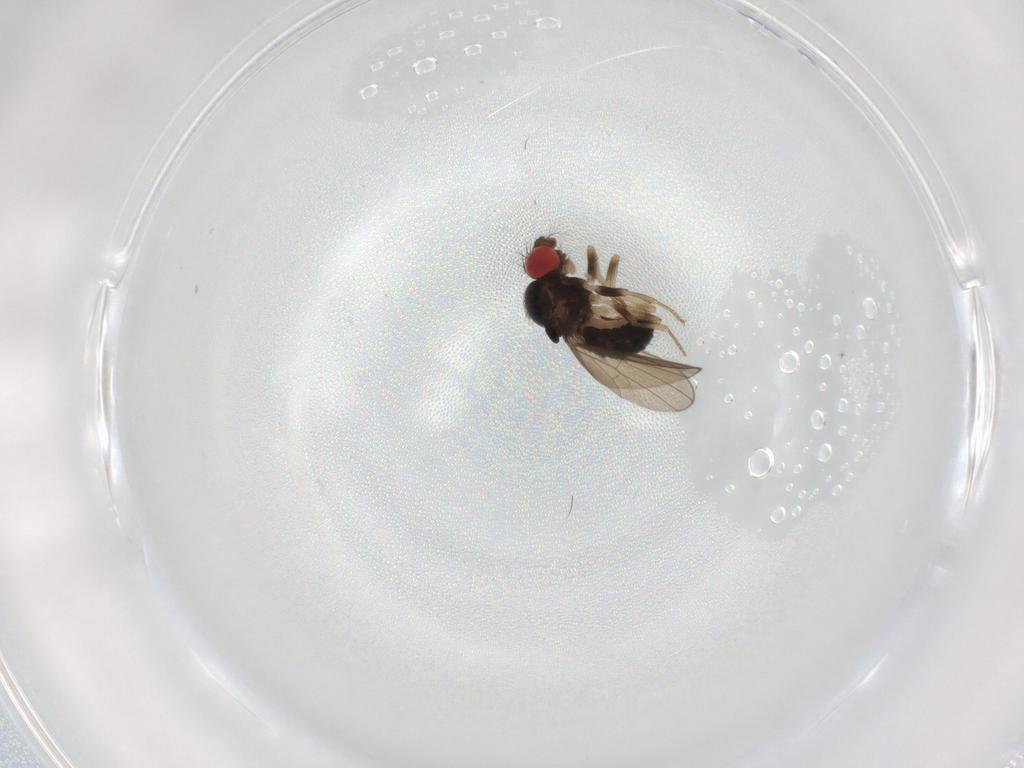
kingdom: Animalia
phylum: Arthropoda
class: Insecta
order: Diptera
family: Drosophilidae
